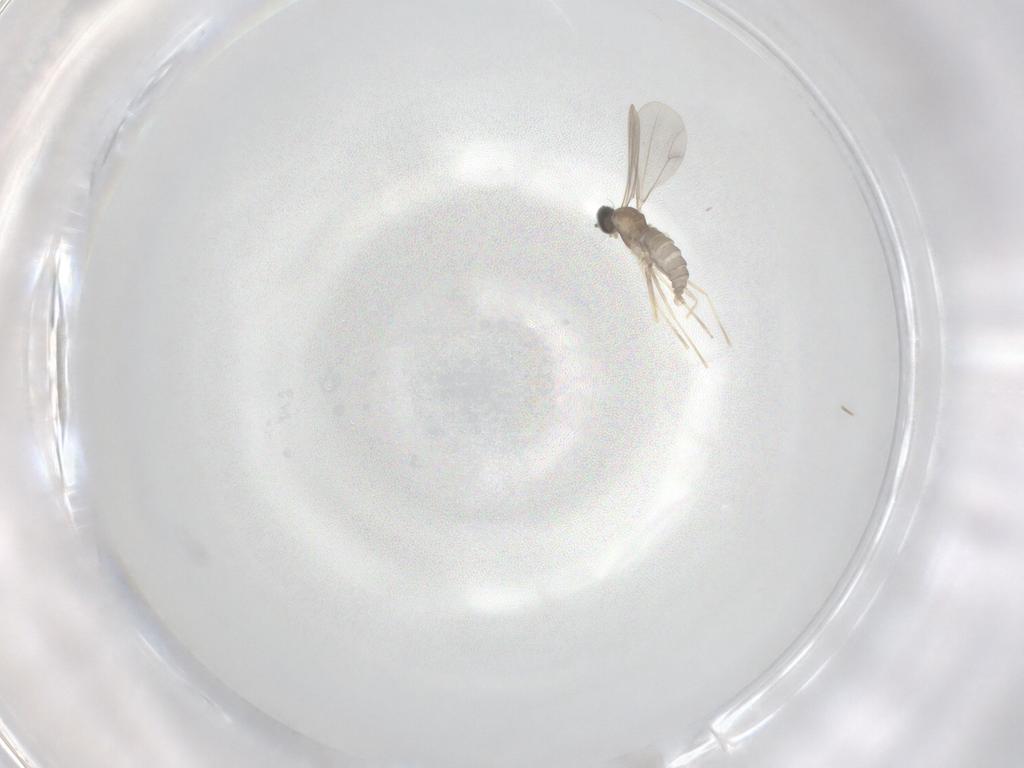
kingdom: Animalia
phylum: Arthropoda
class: Insecta
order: Diptera
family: Cecidomyiidae
